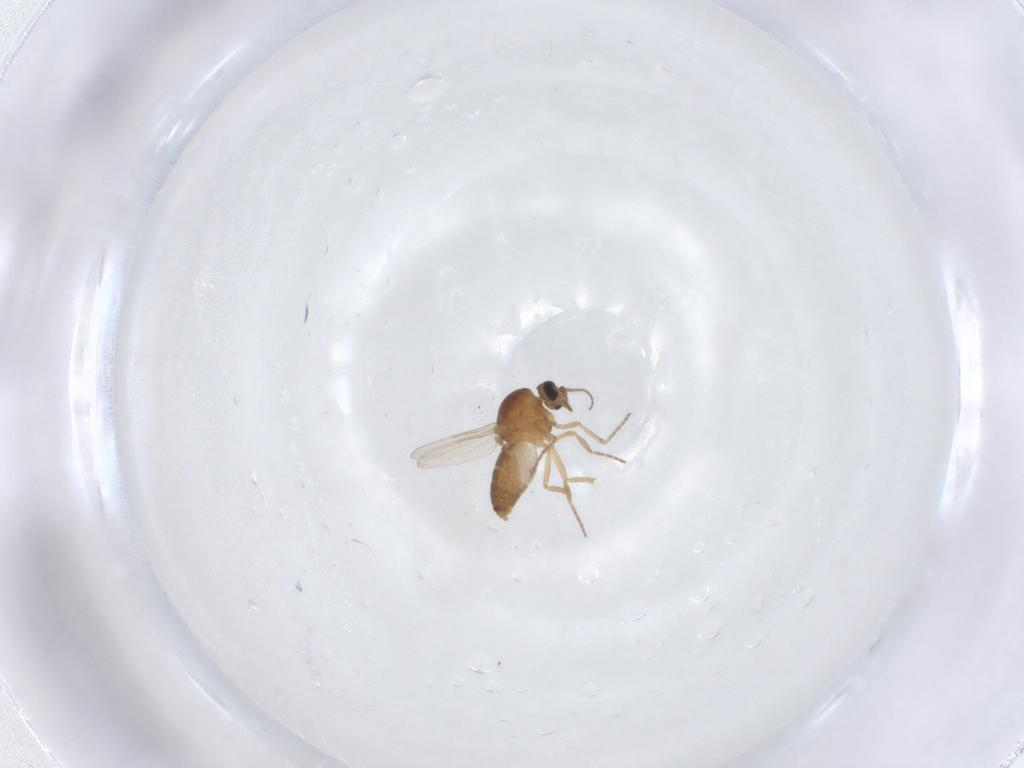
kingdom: Animalia
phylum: Arthropoda
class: Insecta
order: Diptera
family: Ceratopogonidae
